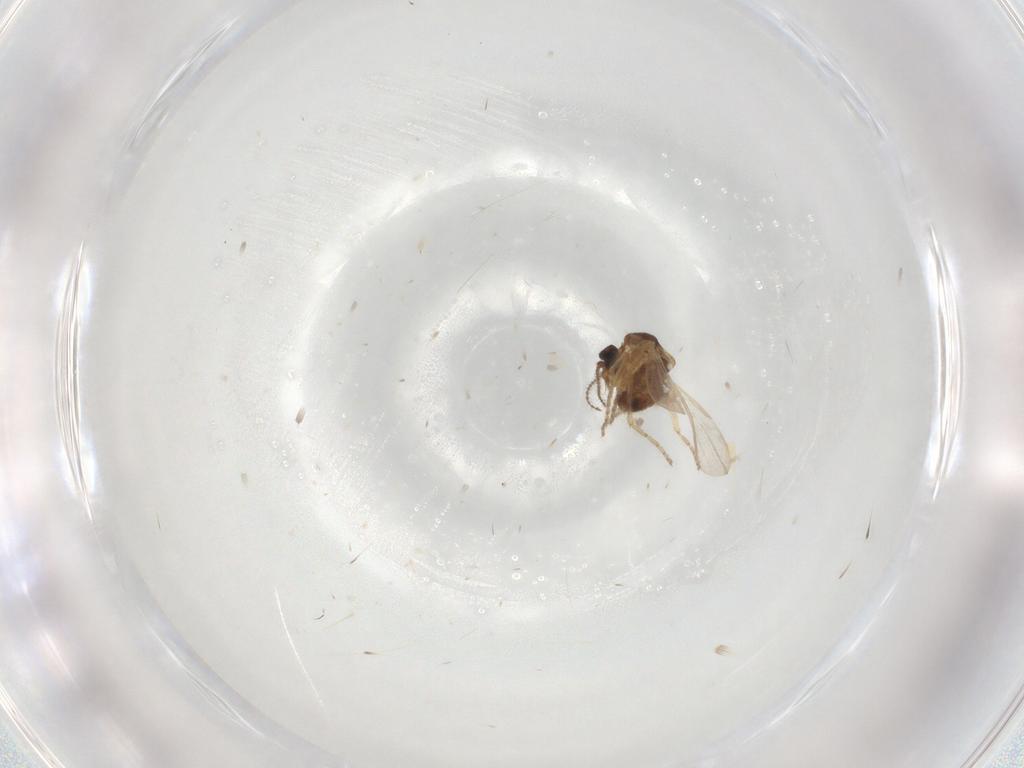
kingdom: Animalia
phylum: Arthropoda
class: Insecta
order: Diptera
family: Ceratopogonidae
